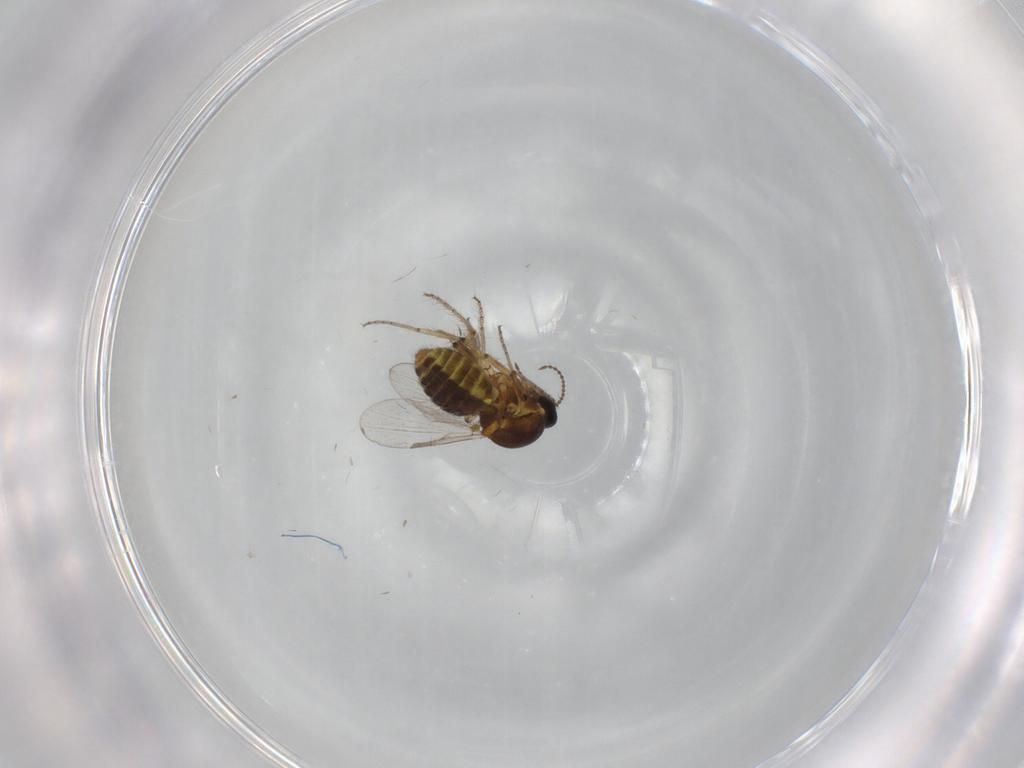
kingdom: Animalia
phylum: Arthropoda
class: Insecta
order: Diptera
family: Ceratopogonidae
